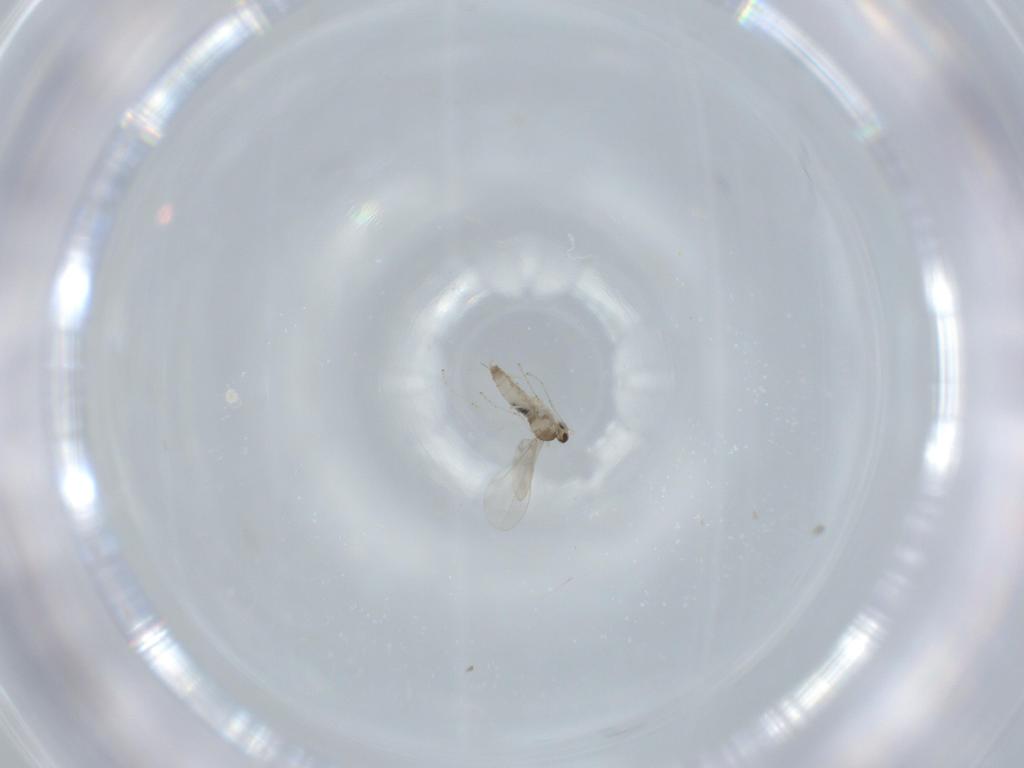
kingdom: Animalia
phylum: Arthropoda
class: Insecta
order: Diptera
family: Cecidomyiidae
